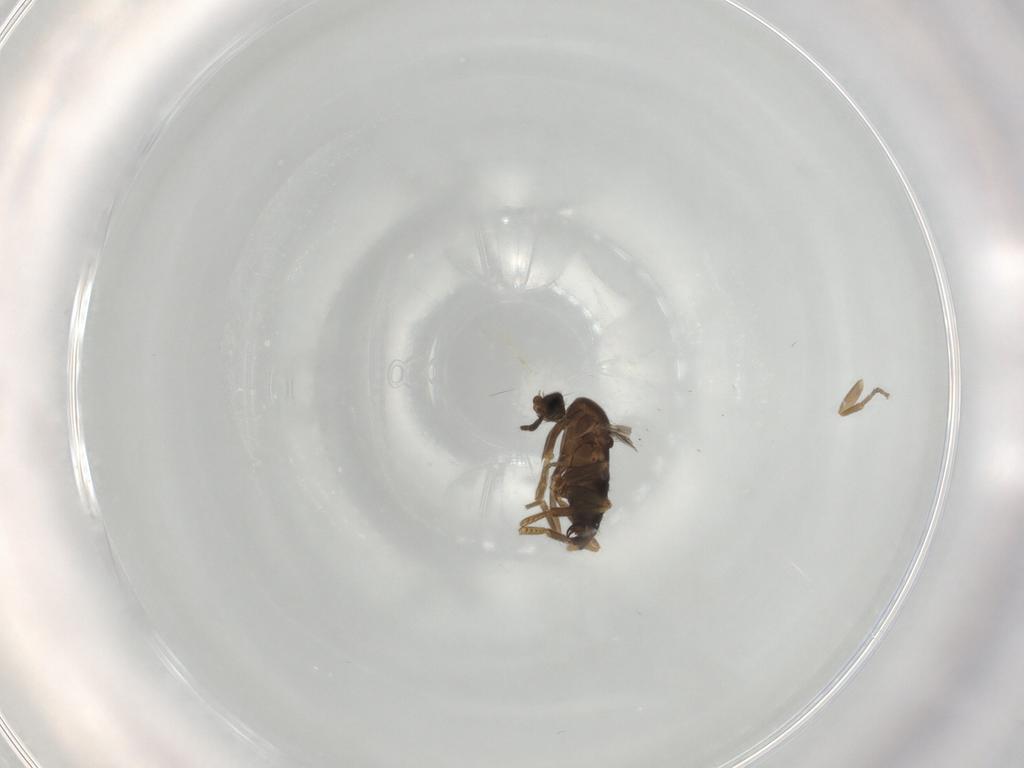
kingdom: Animalia
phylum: Arthropoda
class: Insecta
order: Diptera
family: Phoridae
